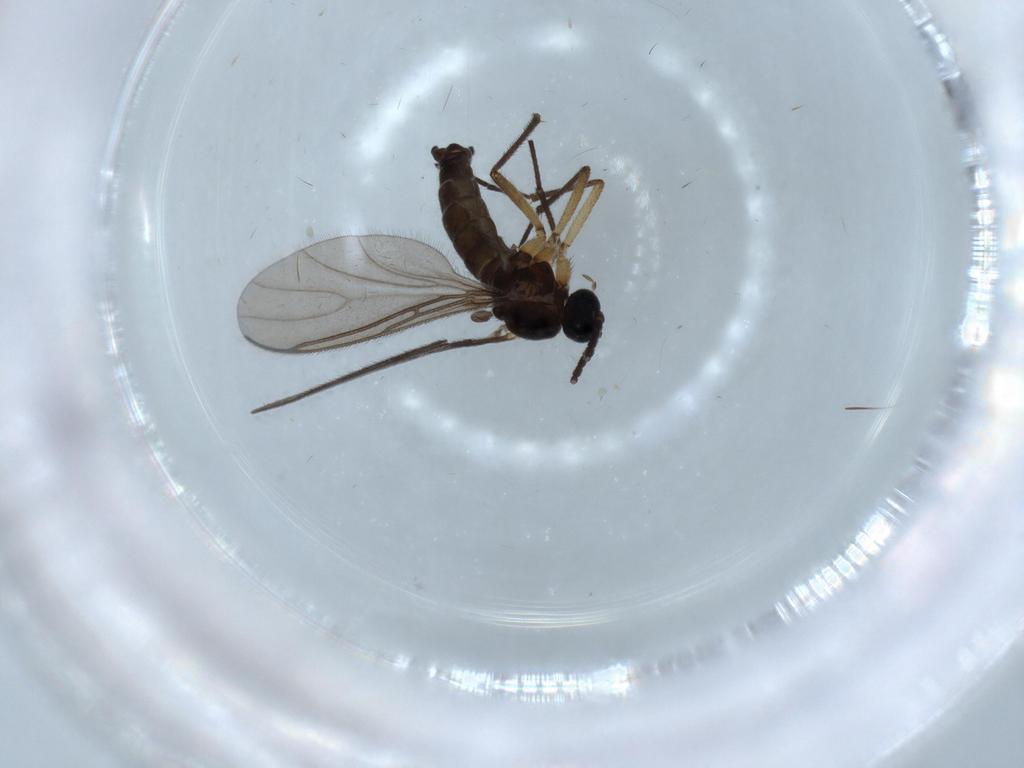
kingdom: Animalia
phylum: Arthropoda
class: Insecta
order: Diptera
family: Sciaridae
